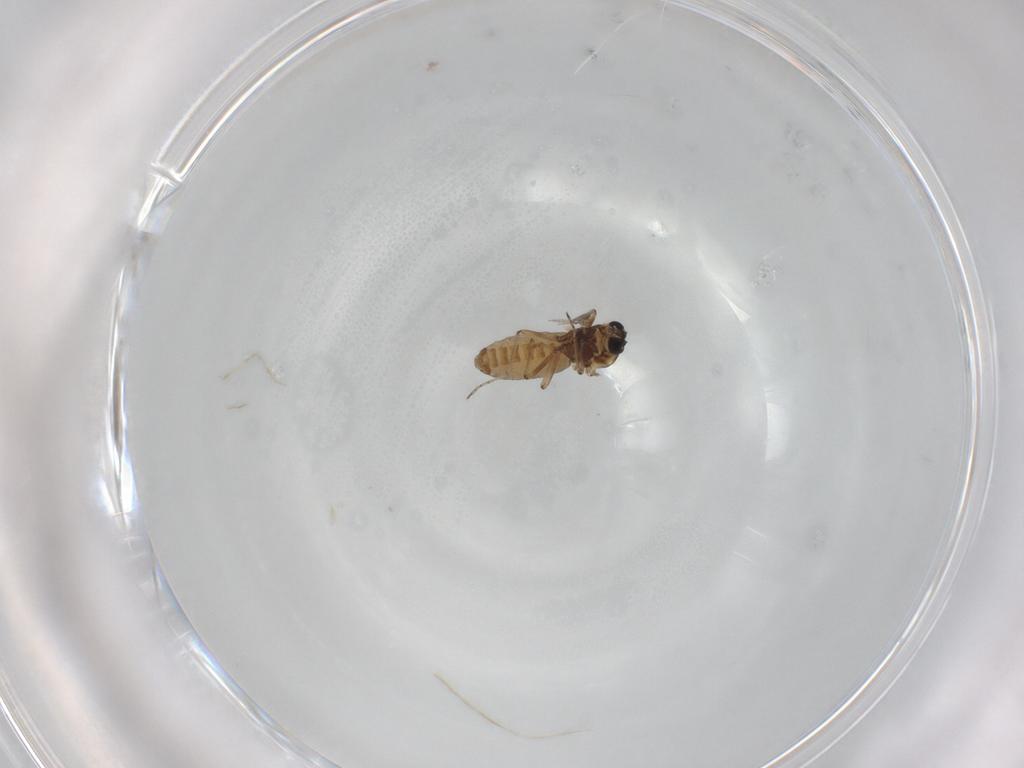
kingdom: Animalia
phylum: Arthropoda
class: Insecta
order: Diptera
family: Ceratopogonidae
